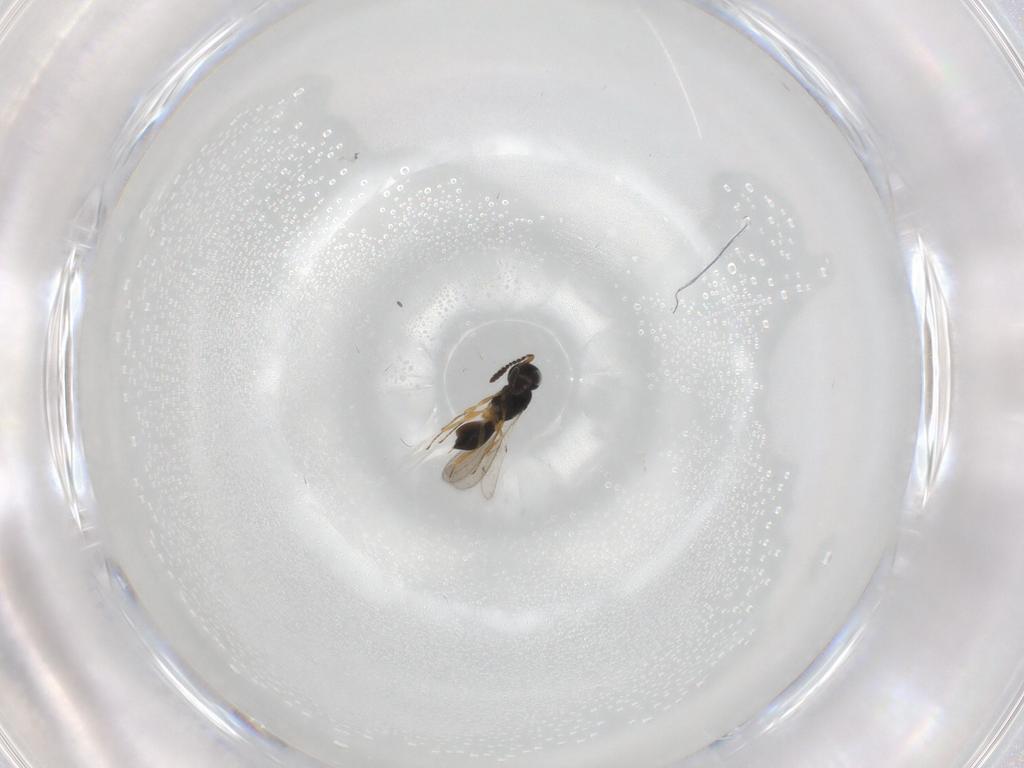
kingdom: Animalia
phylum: Arthropoda
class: Insecta
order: Hymenoptera
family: Scelionidae
